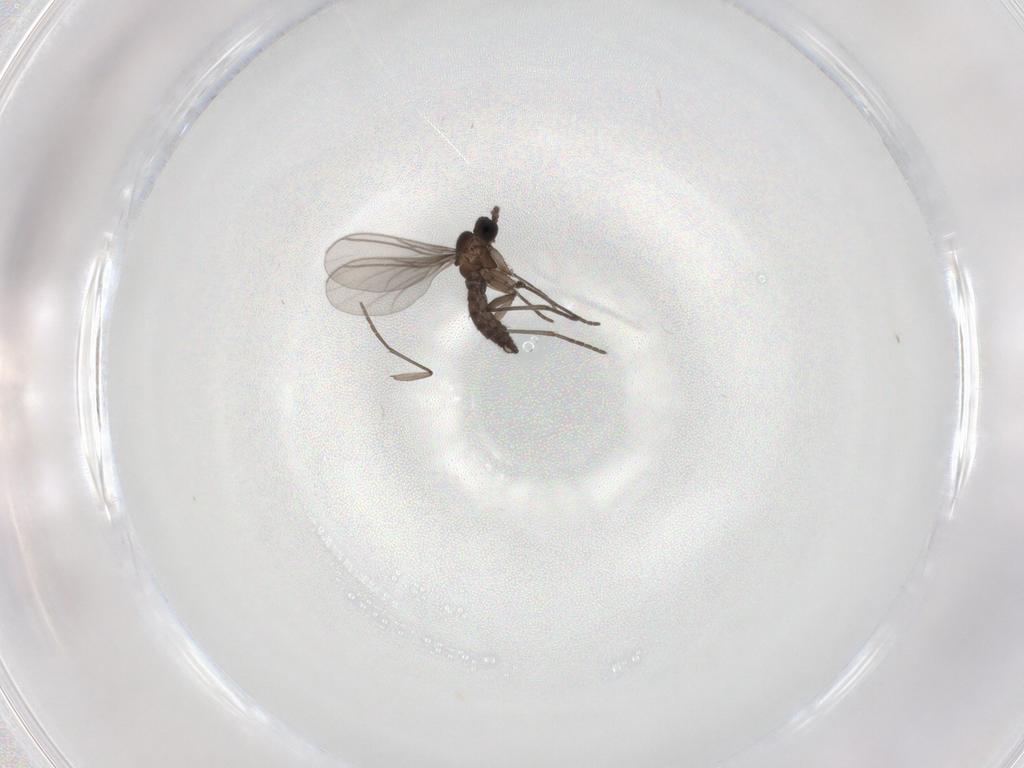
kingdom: Animalia
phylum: Arthropoda
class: Insecta
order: Diptera
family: Chironomidae
